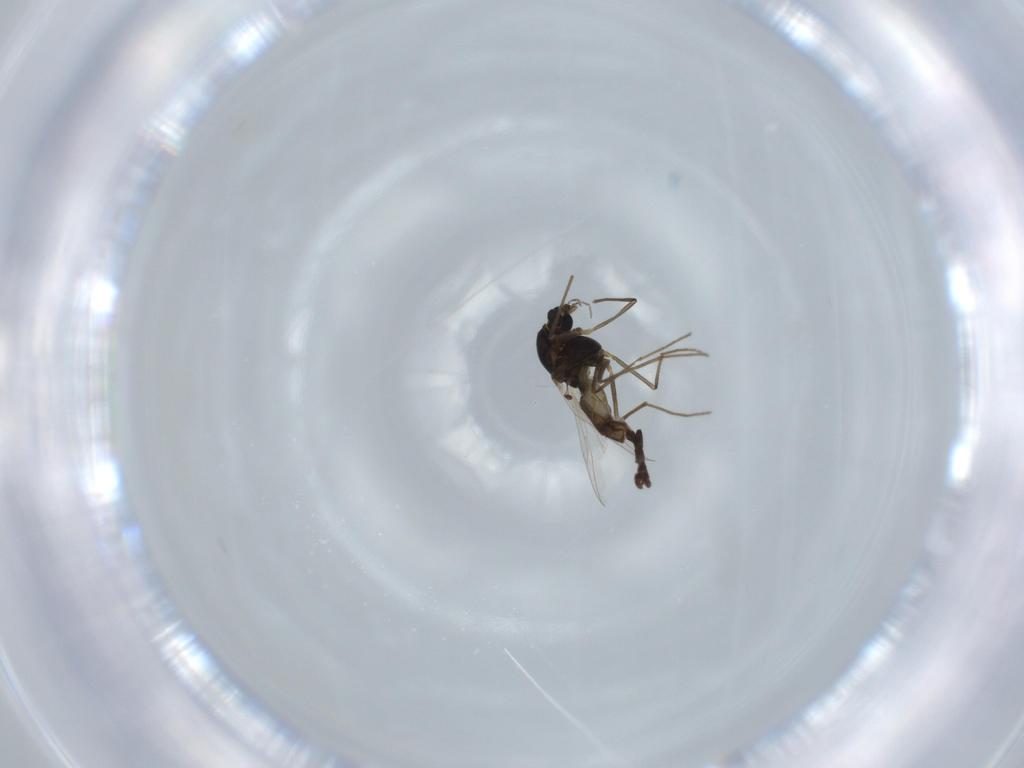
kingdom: Animalia
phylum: Arthropoda
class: Insecta
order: Diptera
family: Chironomidae
